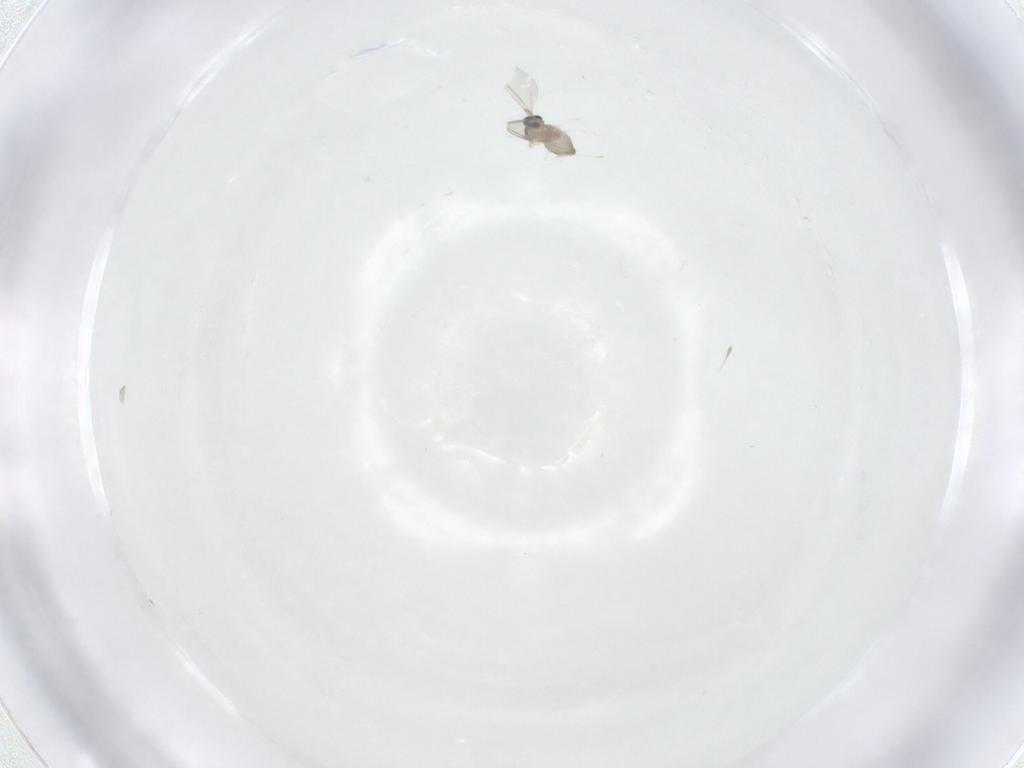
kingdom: Animalia
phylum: Arthropoda
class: Insecta
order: Diptera
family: Cecidomyiidae
